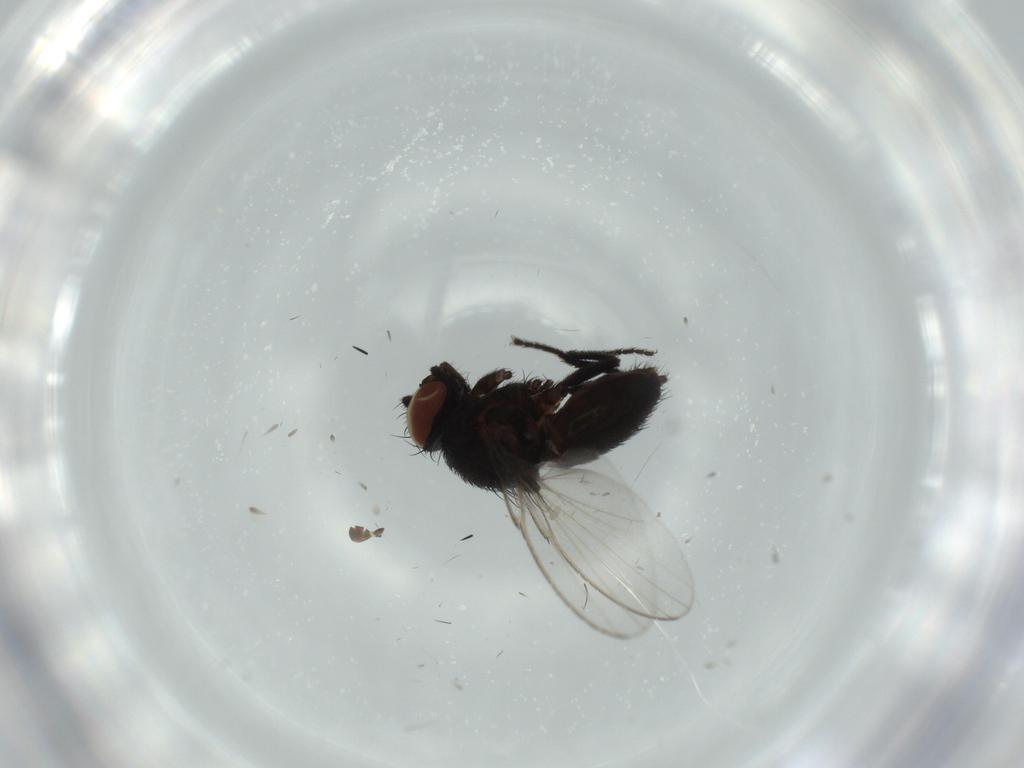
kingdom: Animalia
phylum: Arthropoda
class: Insecta
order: Diptera
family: Milichiidae
